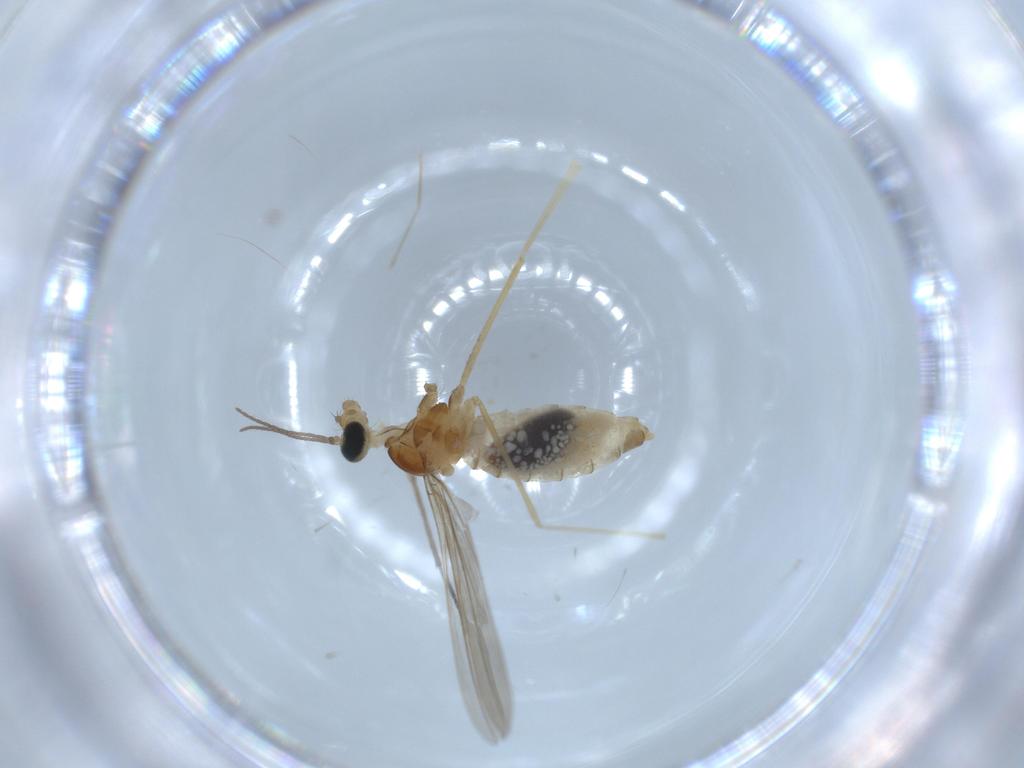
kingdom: Animalia
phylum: Arthropoda
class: Insecta
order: Diptera
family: Cecidomyiidae
